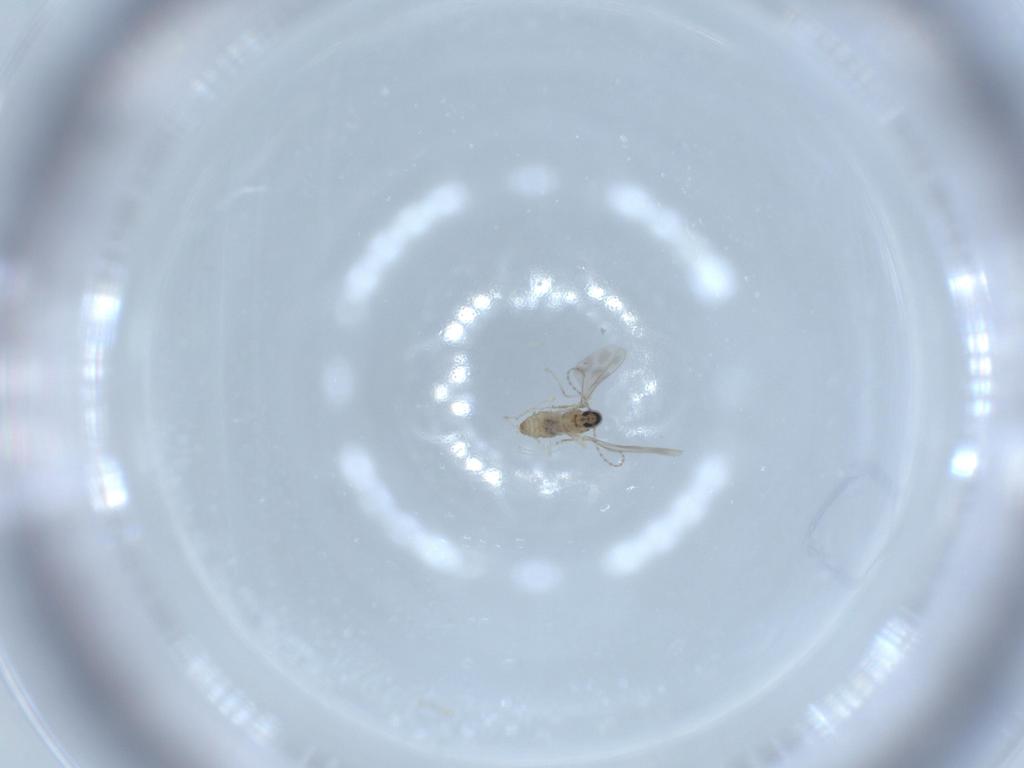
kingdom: Animalia
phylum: Arthropoda
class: Insecta
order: Diptera
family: Cecidomyiidae
